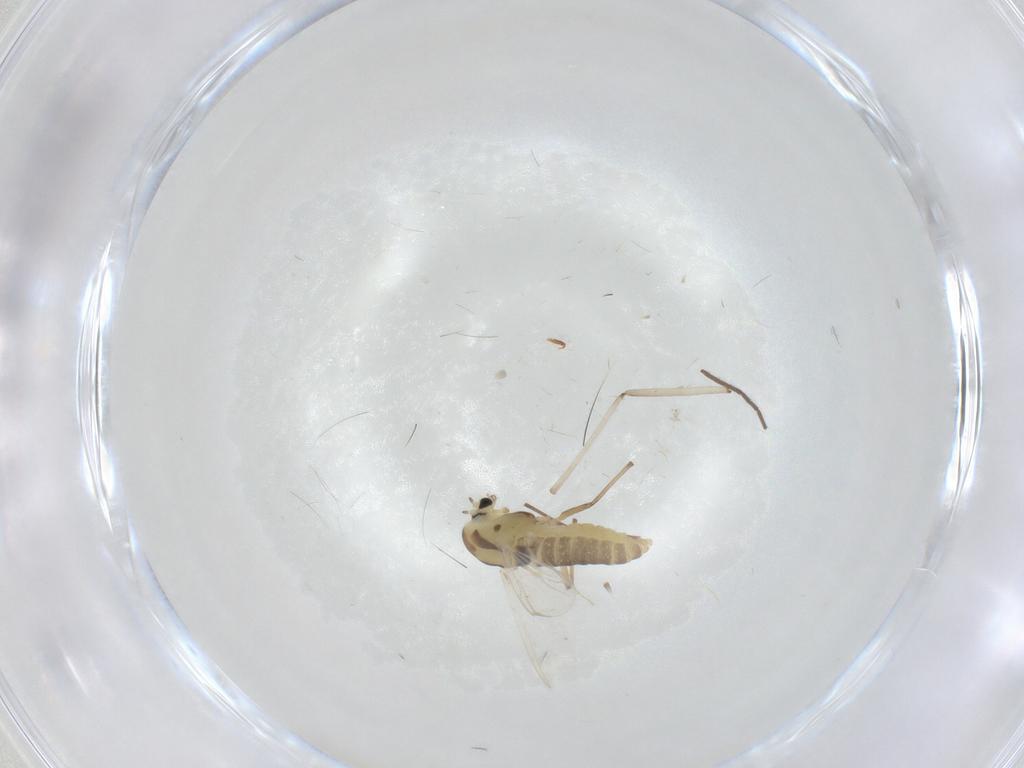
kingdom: Animalia
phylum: Arthropoda
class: Insecta
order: Diptera
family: Chironomidae
